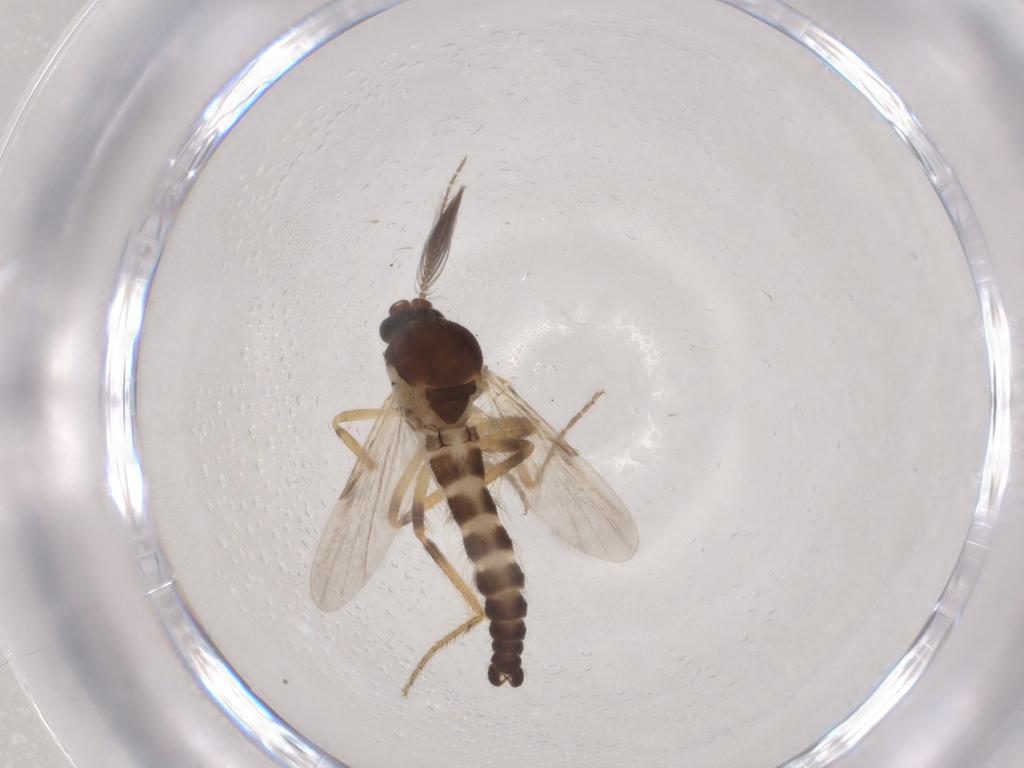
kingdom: Animalia
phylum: Arthropoda
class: Insecta
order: Diptera
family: Ceratopogonidae
